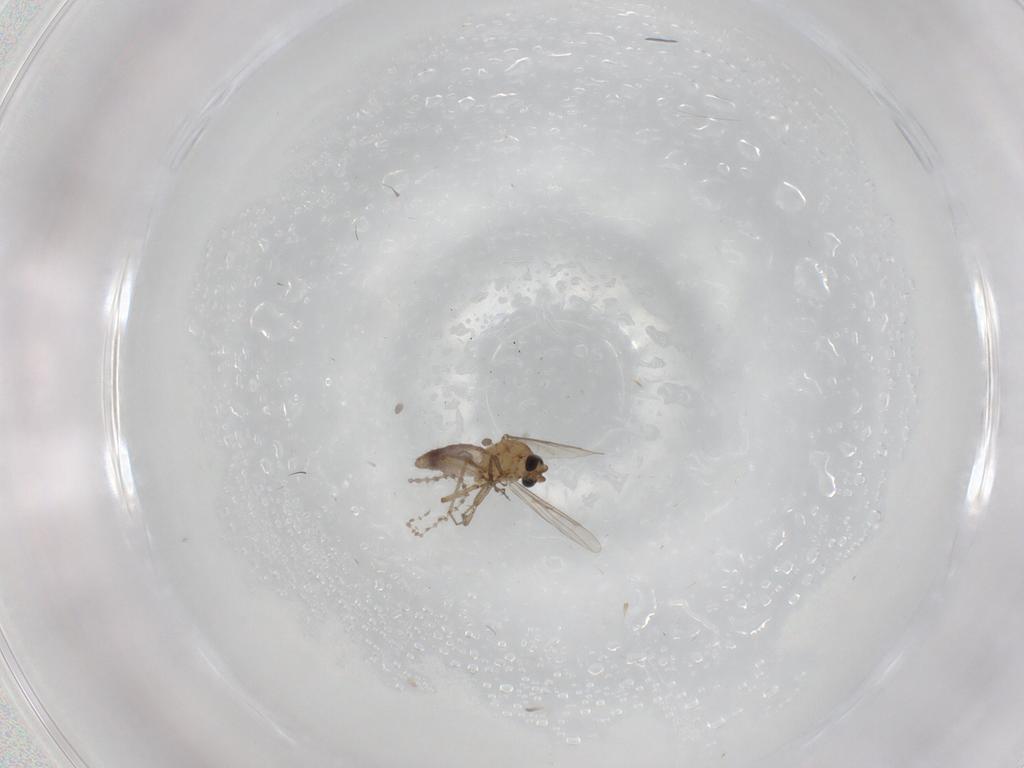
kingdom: Animalia
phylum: Arthropoda
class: Insecta
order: Diptera
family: Cecidomyiidae
